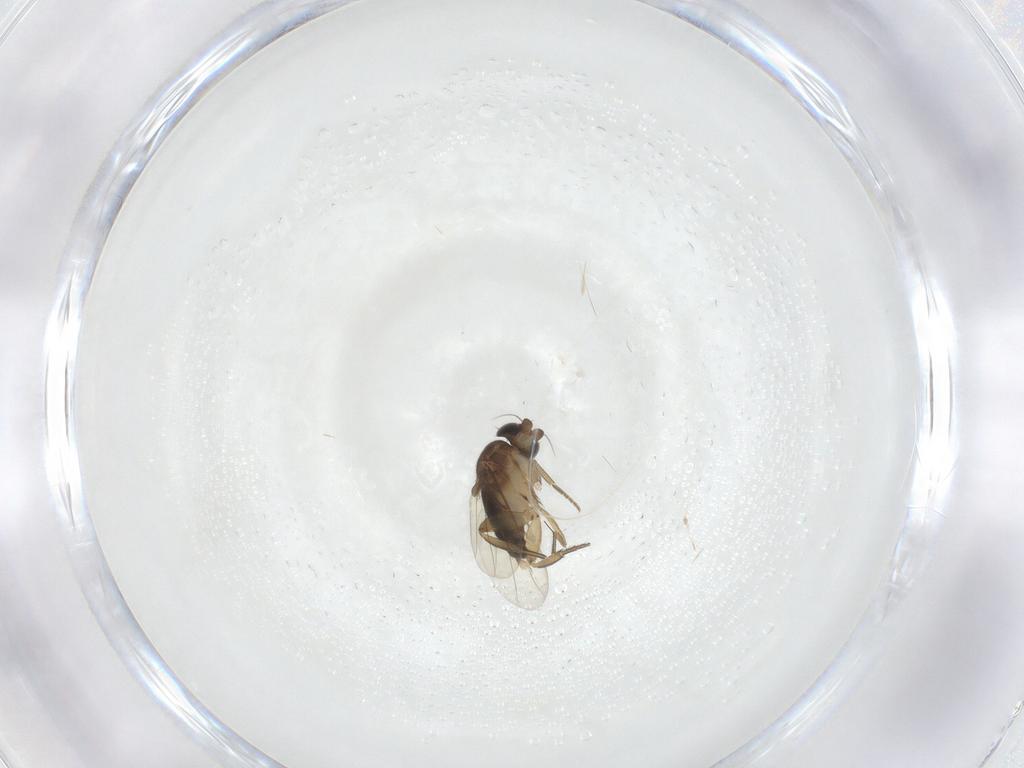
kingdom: Animalia
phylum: Arthropoda
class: Insecta
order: Diptera
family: Phoridae
